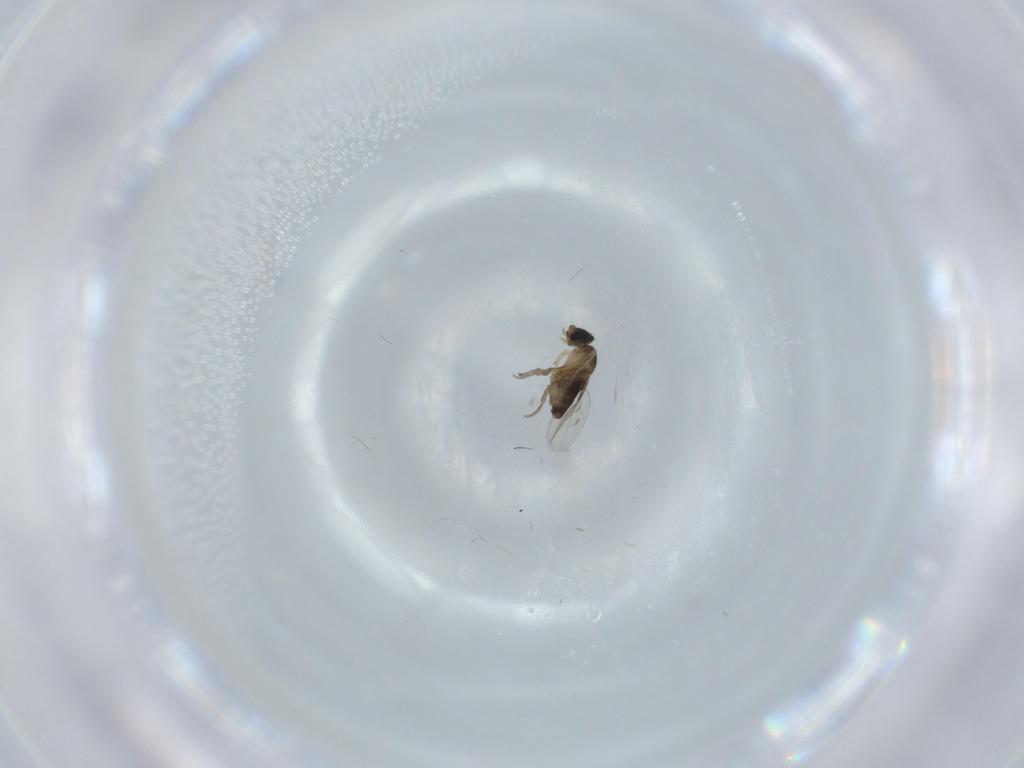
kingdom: Animalia
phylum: Arthropoda
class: Insecta
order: Diptera
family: Phoridae
